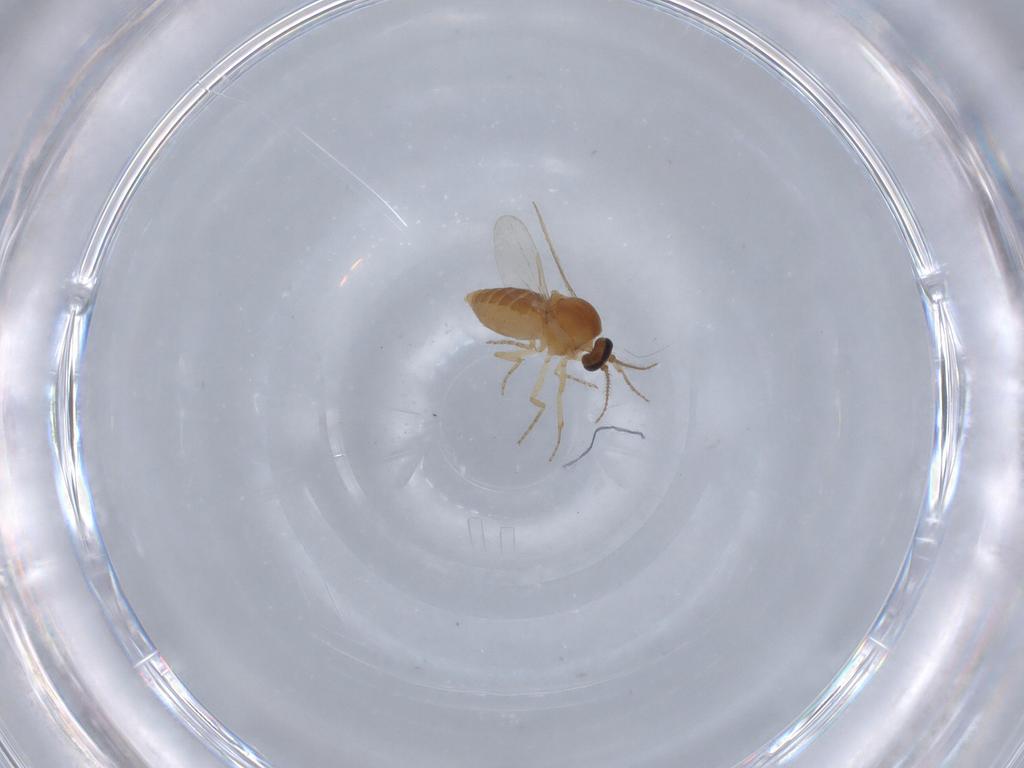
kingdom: Animalia
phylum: Arthropoda
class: Insecta
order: Diptera
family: Ceratopogonidae
